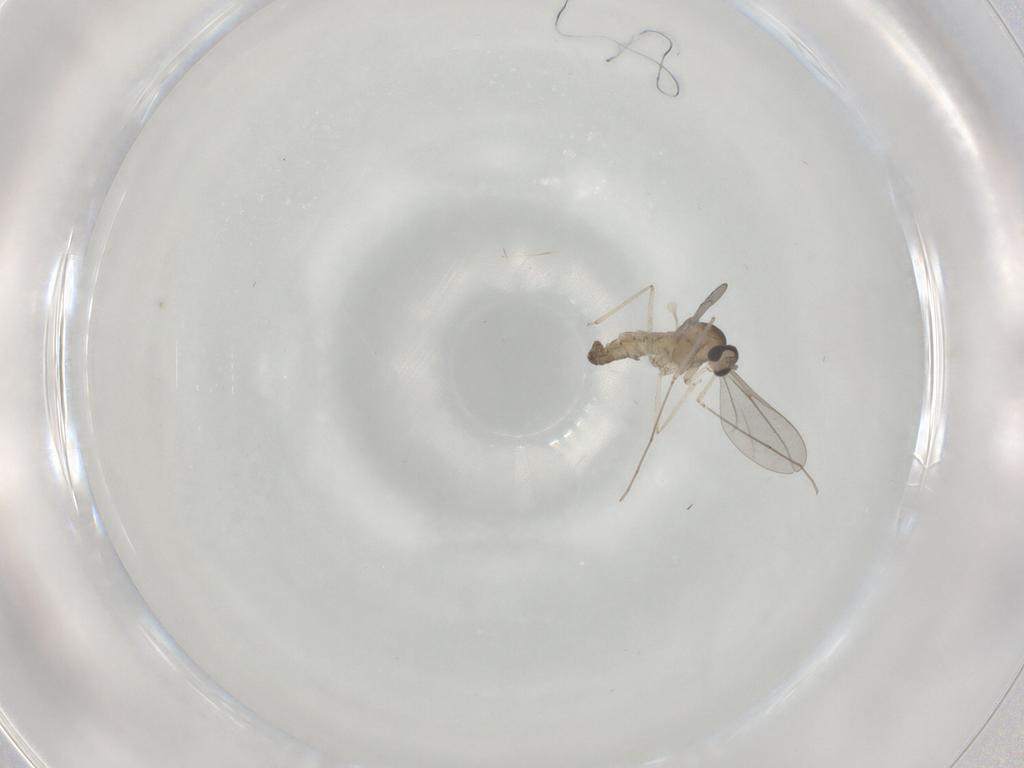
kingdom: Animalia
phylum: Arthropoda
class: Insecta
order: Diptera
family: Cecidomyiidae
